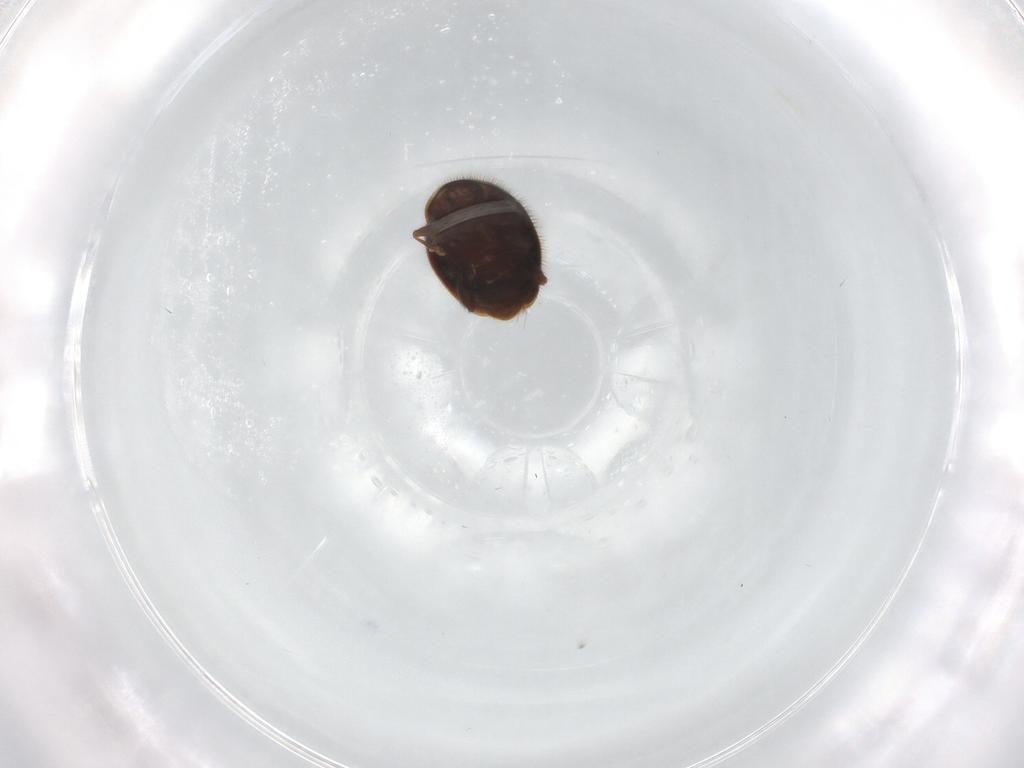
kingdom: Animalia
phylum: Arthropoda
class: Insecta
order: Coleoptera
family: Corylophidae
